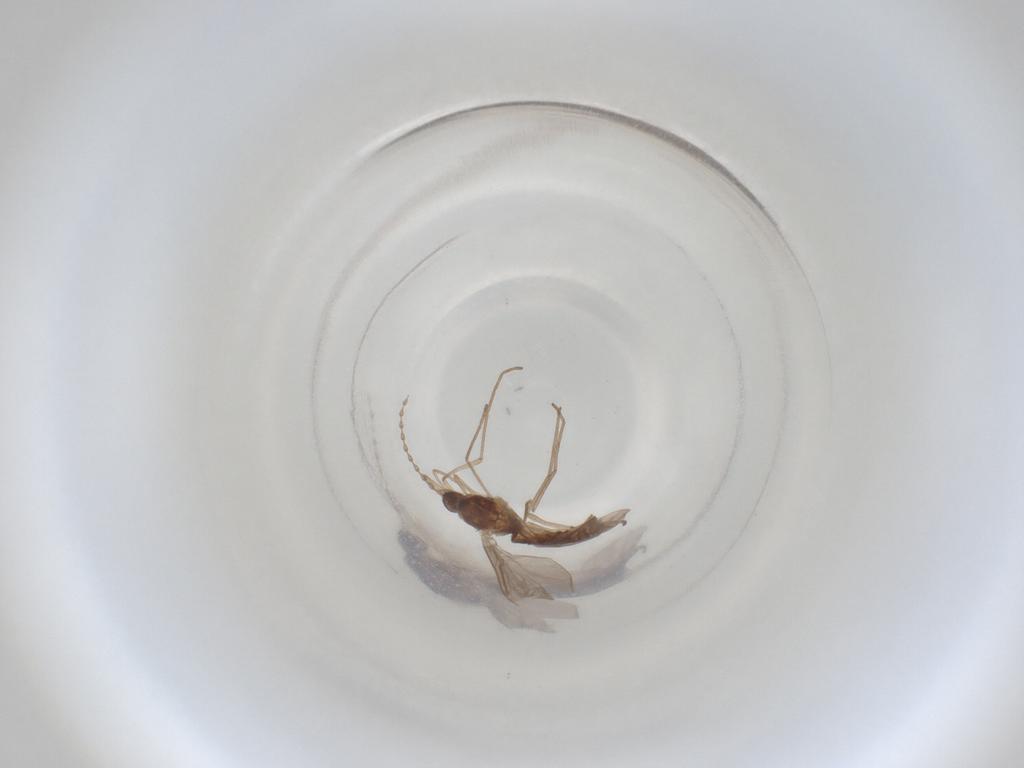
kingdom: Animalia
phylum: Arthropoda
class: Insecta
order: Diptera
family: Cecidomyiidae
